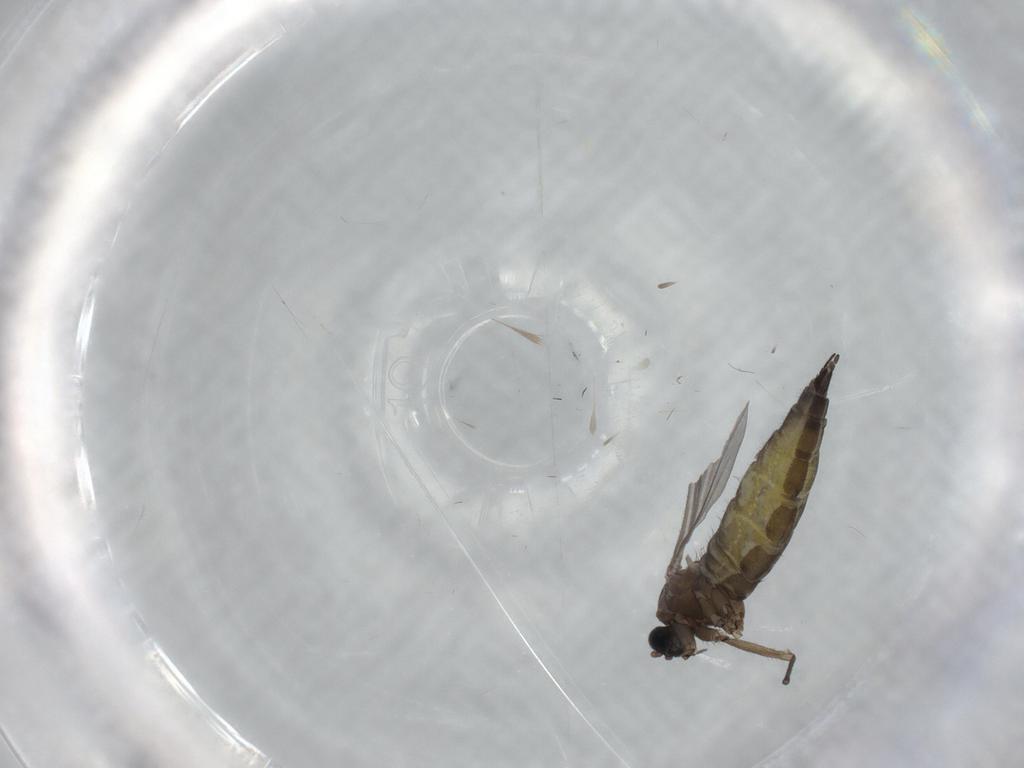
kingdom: Animalia
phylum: Arthropoda
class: Insecta
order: Diptera
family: Sciaridae
